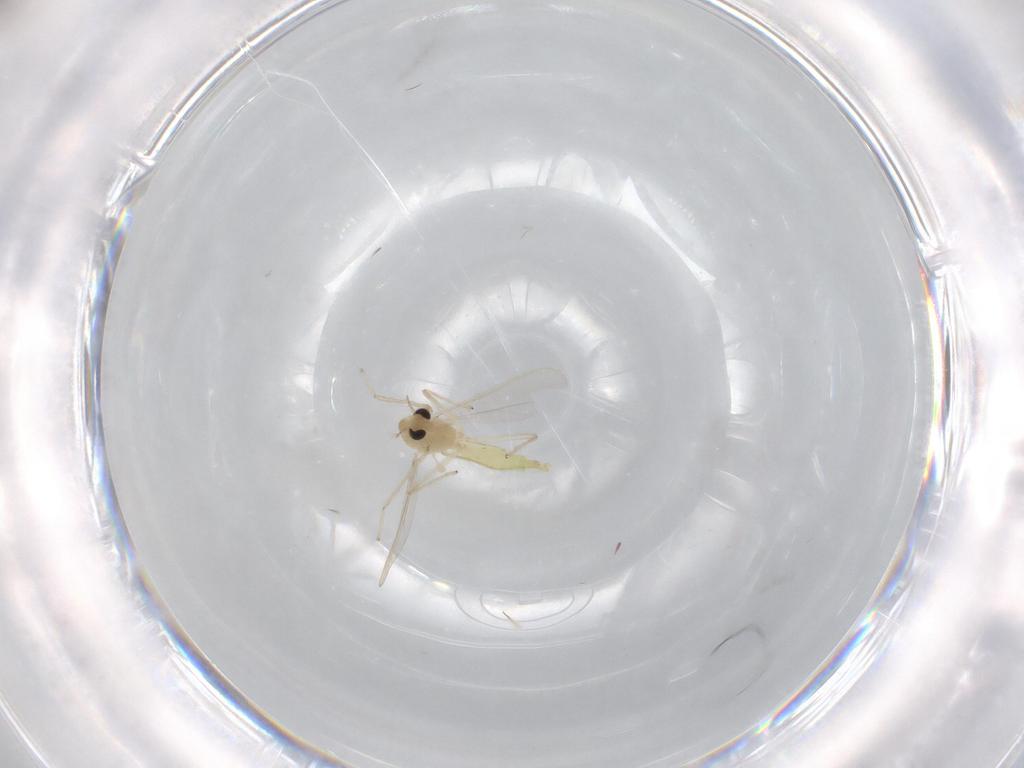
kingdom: Animalia
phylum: Arthropoda
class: Insecta
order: Diptera
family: Chironomidae
